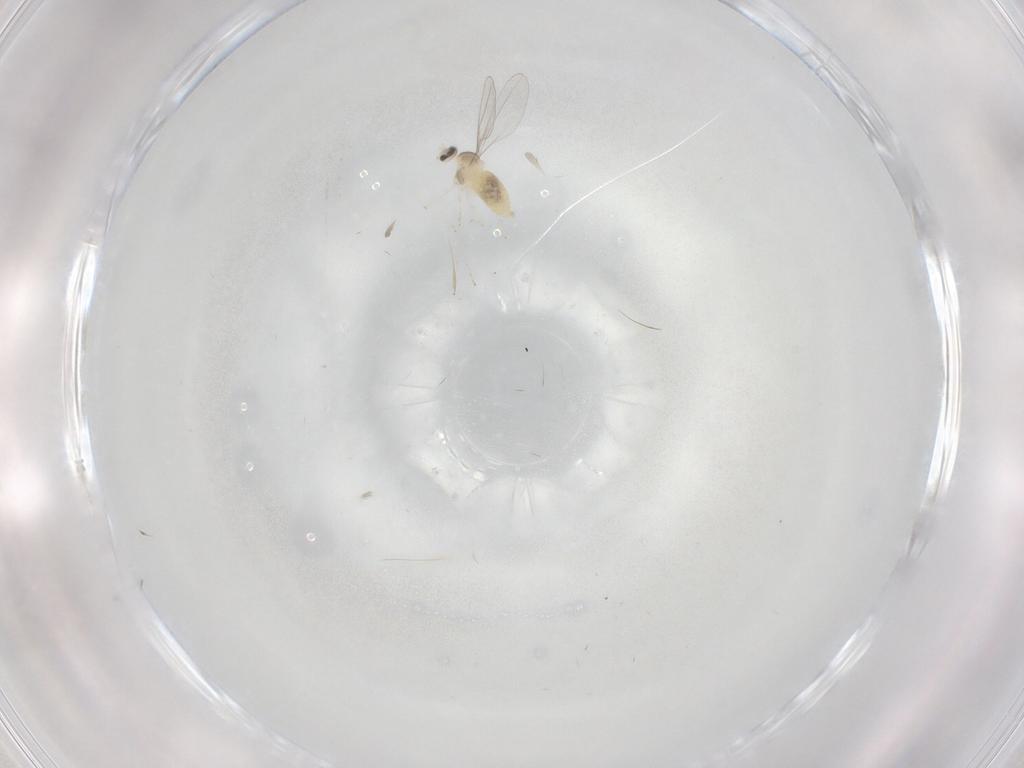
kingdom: Animalia
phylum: Arthropoda
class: Insecta
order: Diptera
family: Cecidomyiidae
